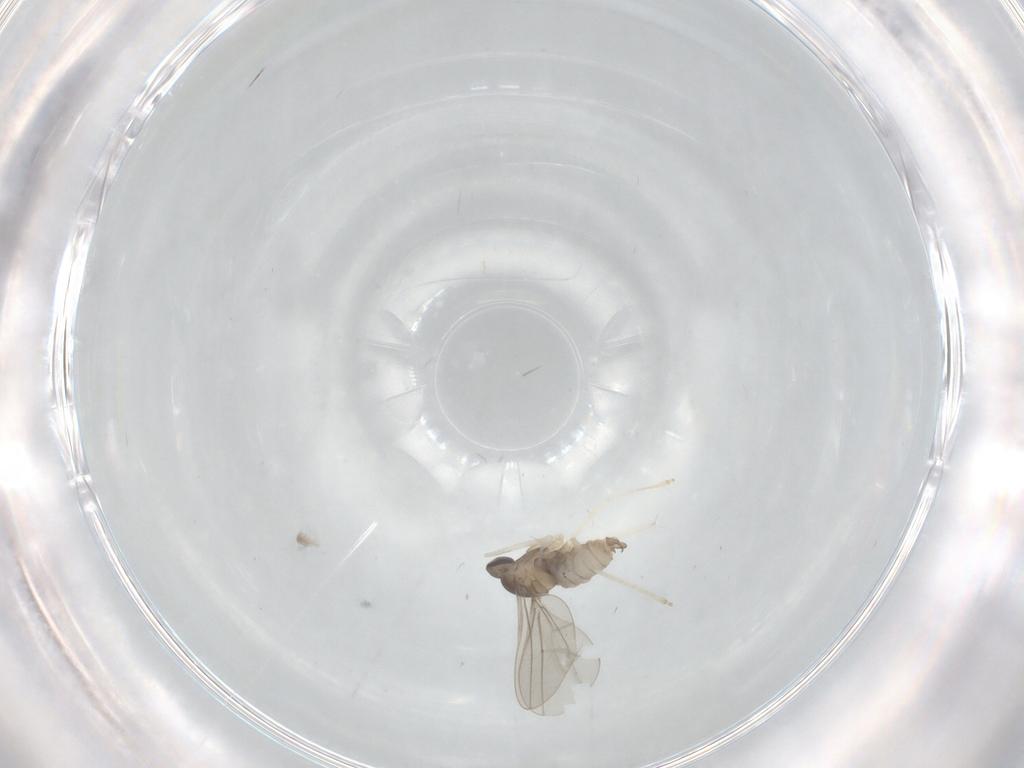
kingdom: Animalia
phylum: Arthropoda
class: Insecta
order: Diptera
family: Cecidomyiidae
